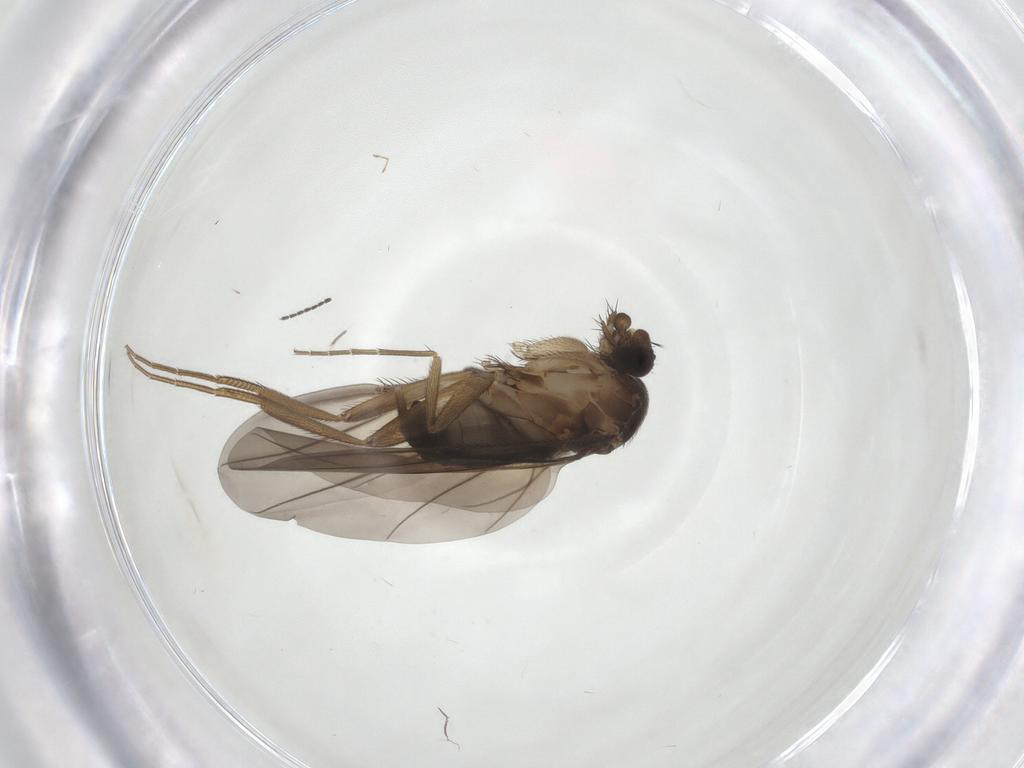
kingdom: Animalia
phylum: Arthropoda
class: Insecta
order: Diptera
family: Phoridae
